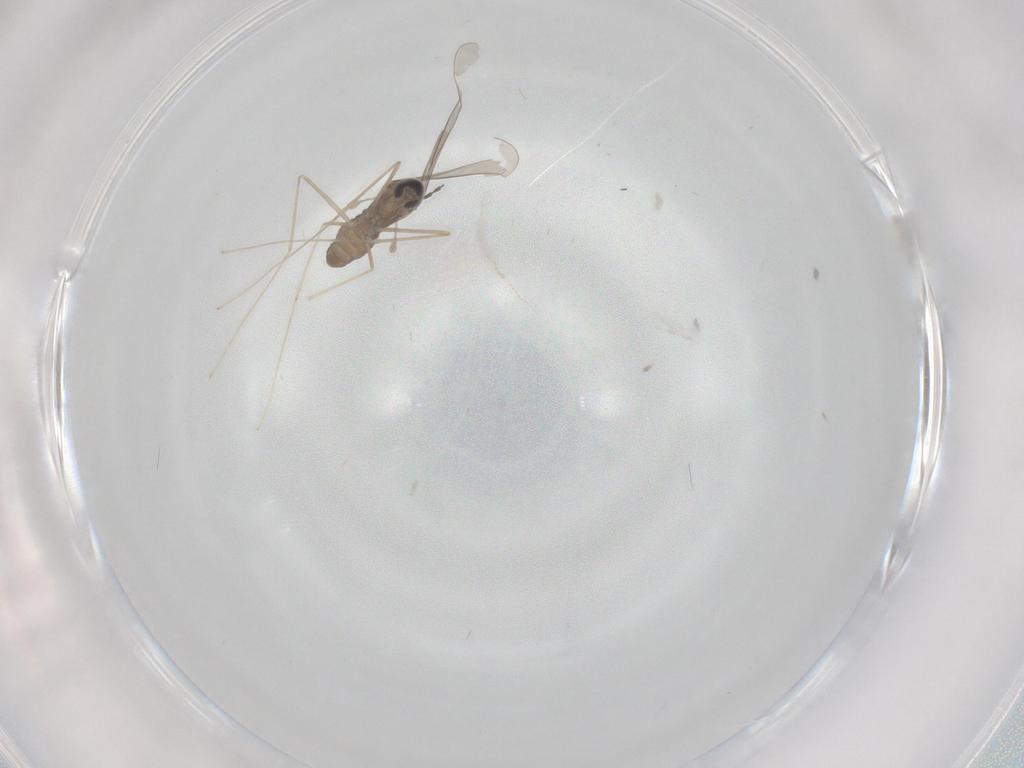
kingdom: Animalia
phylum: Arthropoda
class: Insecta
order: Diptera
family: Cecidomyiidae
